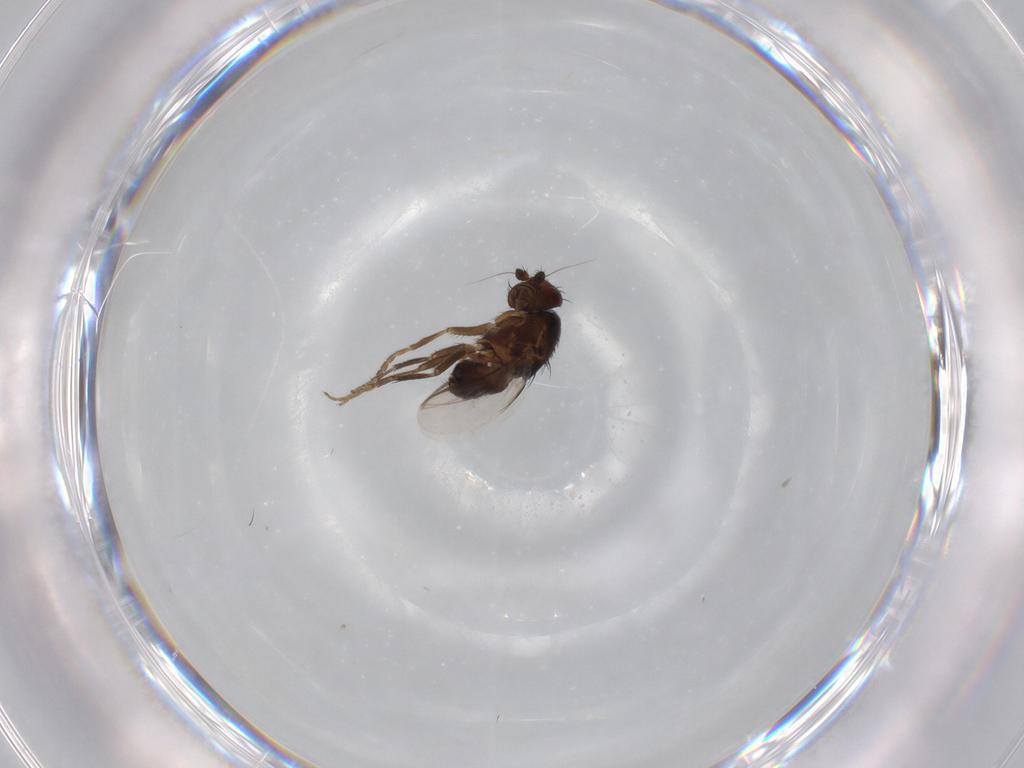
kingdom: Animalia
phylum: Arthropoda
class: Insecta
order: Diptera
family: Sphaeroceridae
